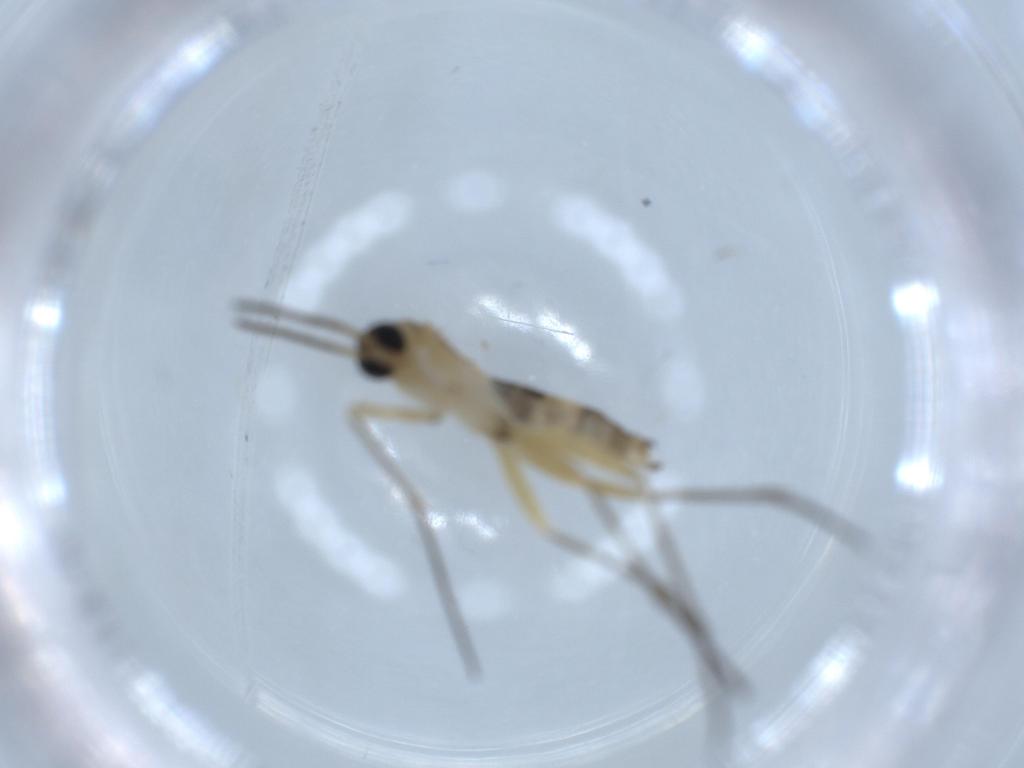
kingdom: Animalia
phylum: Arthropoda
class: Insecta
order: Diptera
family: Sciaridae
